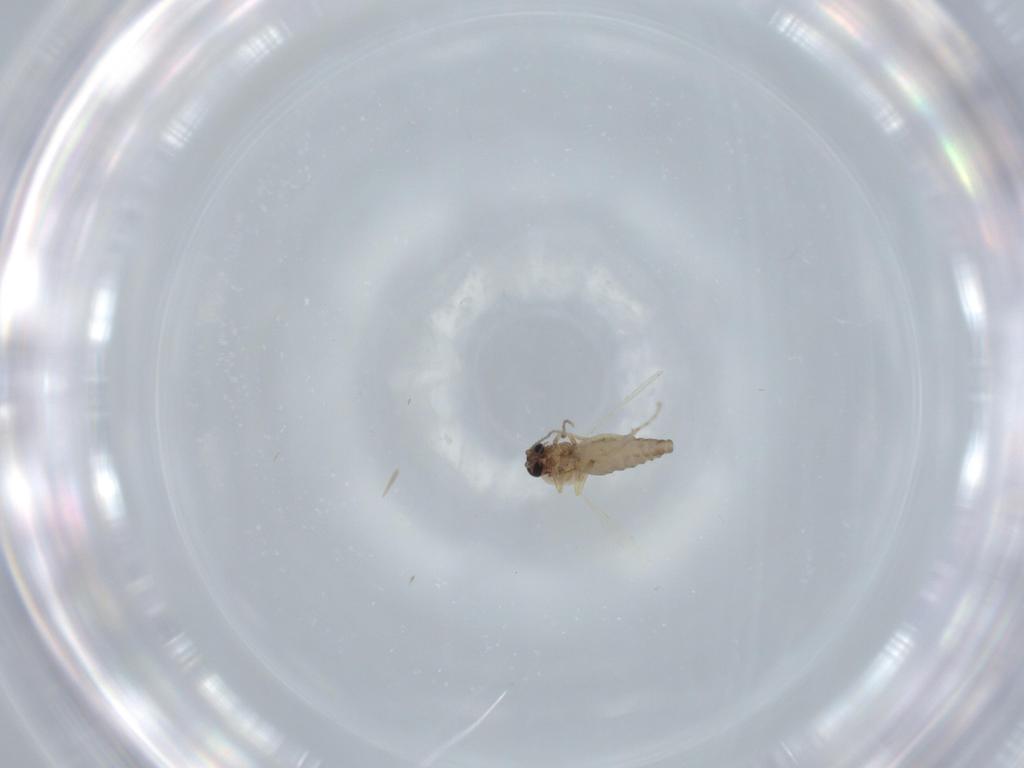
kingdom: Animalia
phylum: Arthropoda
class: Insecta
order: Diptera
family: Ceratopogonidae
